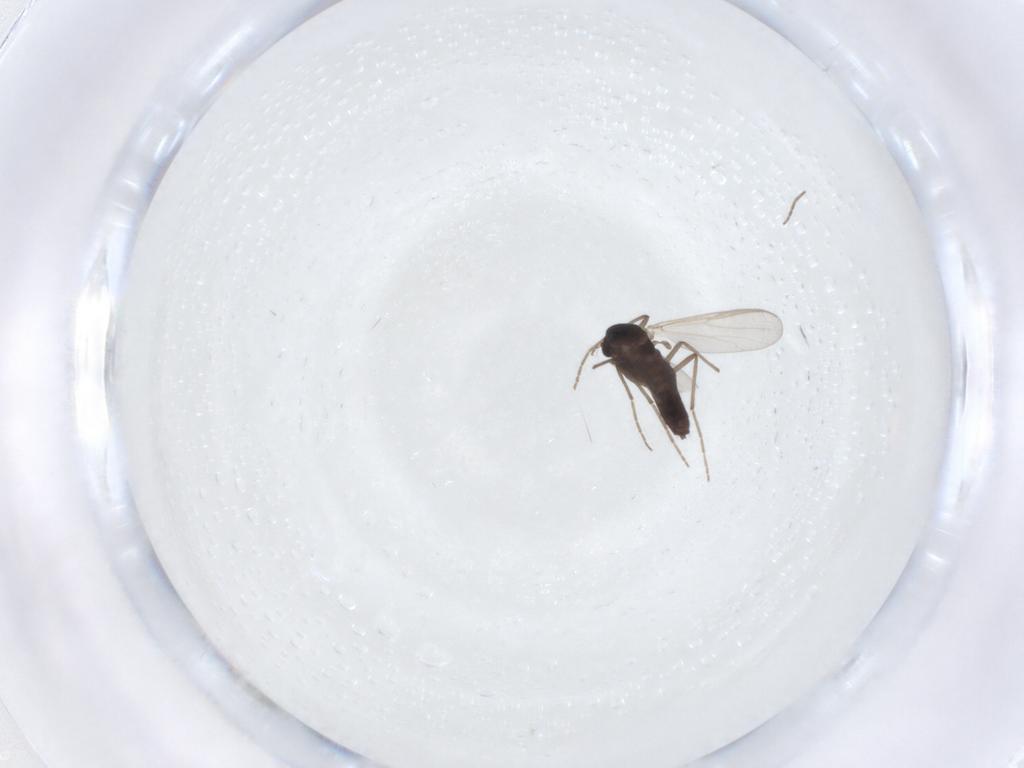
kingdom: Animalia
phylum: Arthropoda
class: Insecta
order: Diptera
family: Chironomidae
